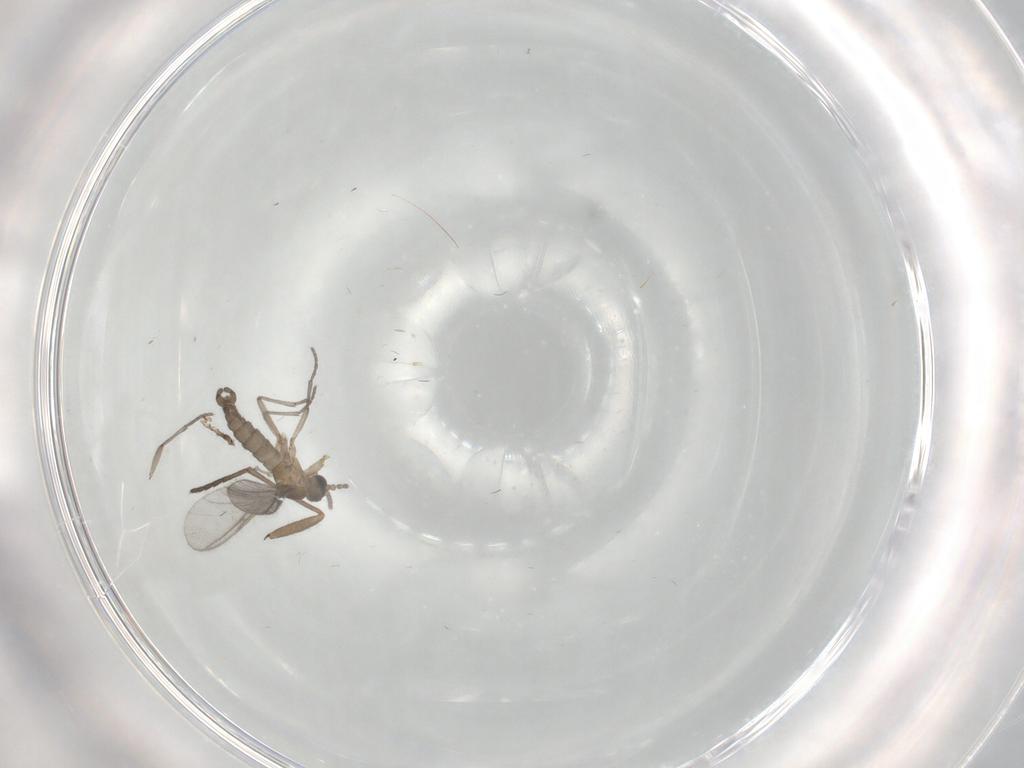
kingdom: Animalia
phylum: Arthropoda
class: Insecta
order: Diptera
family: Sciaridae
